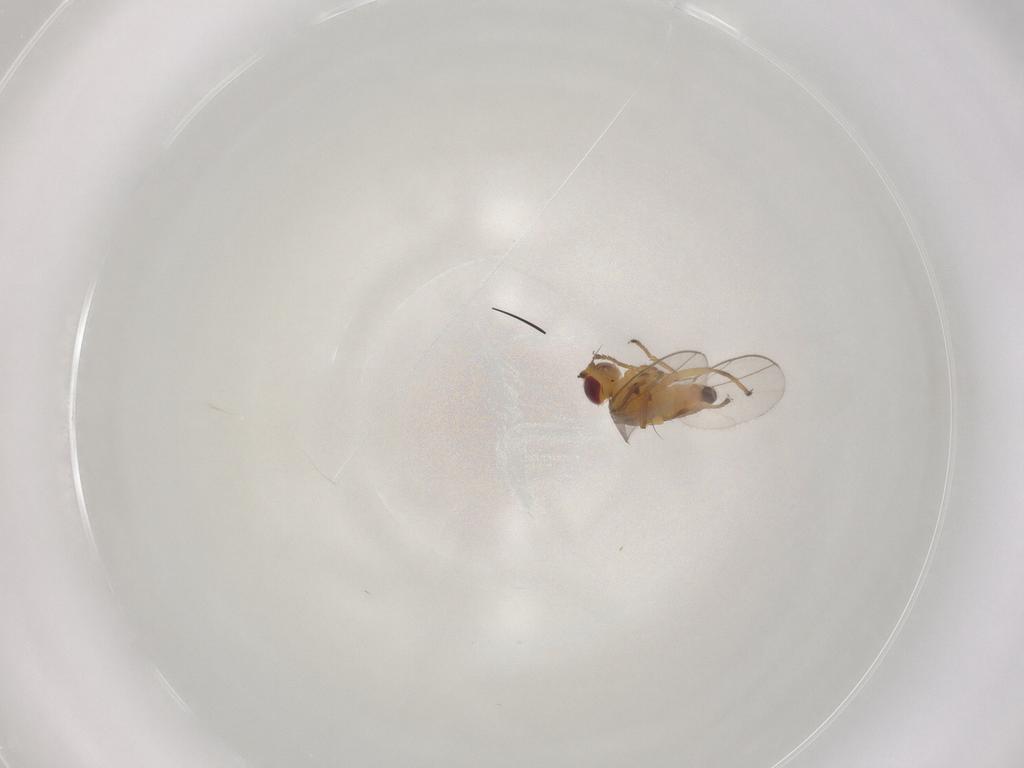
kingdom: Animalia
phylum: Arthropoda
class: Insecta
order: Diptera
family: Chloropidae
